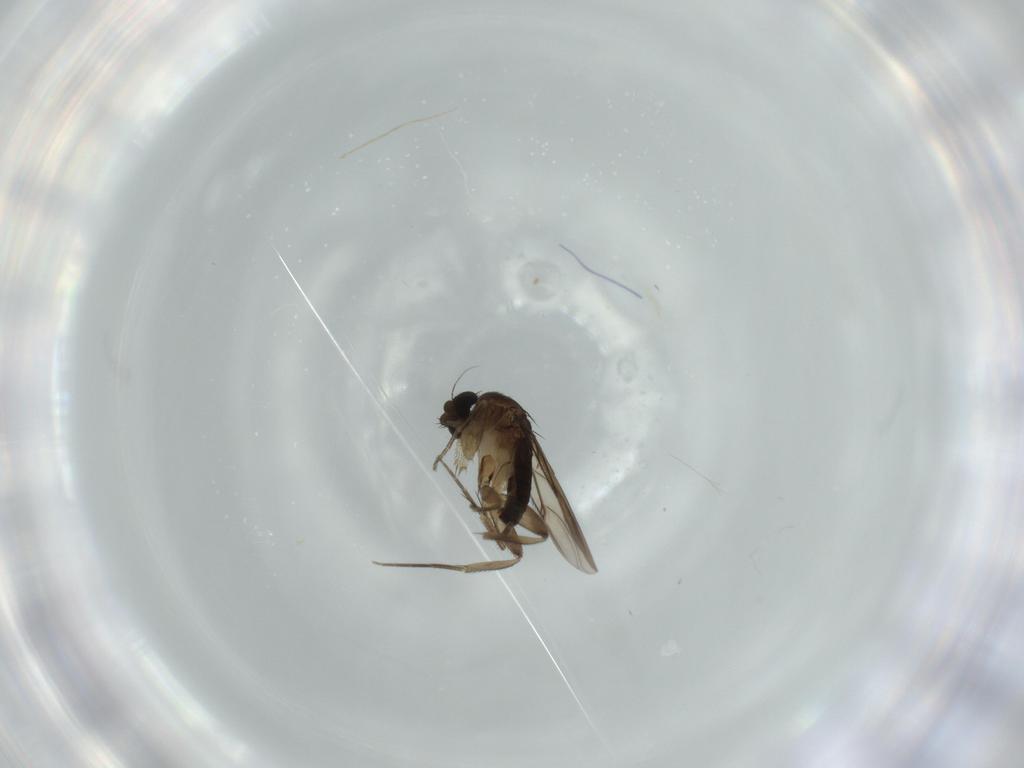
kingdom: Animalia
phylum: Arthropoda
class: Insecta
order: Diptera
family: Phoridae
